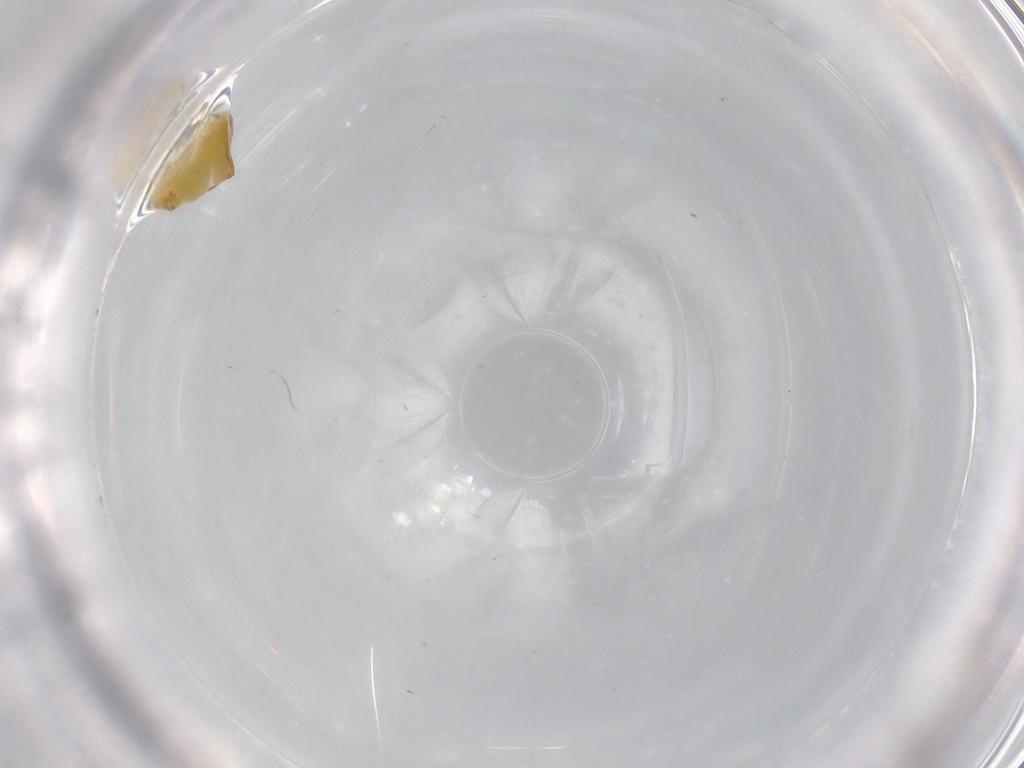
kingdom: Animalia
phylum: Arthropoda
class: Insecta
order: Hemiptera
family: Aleyrodidae
